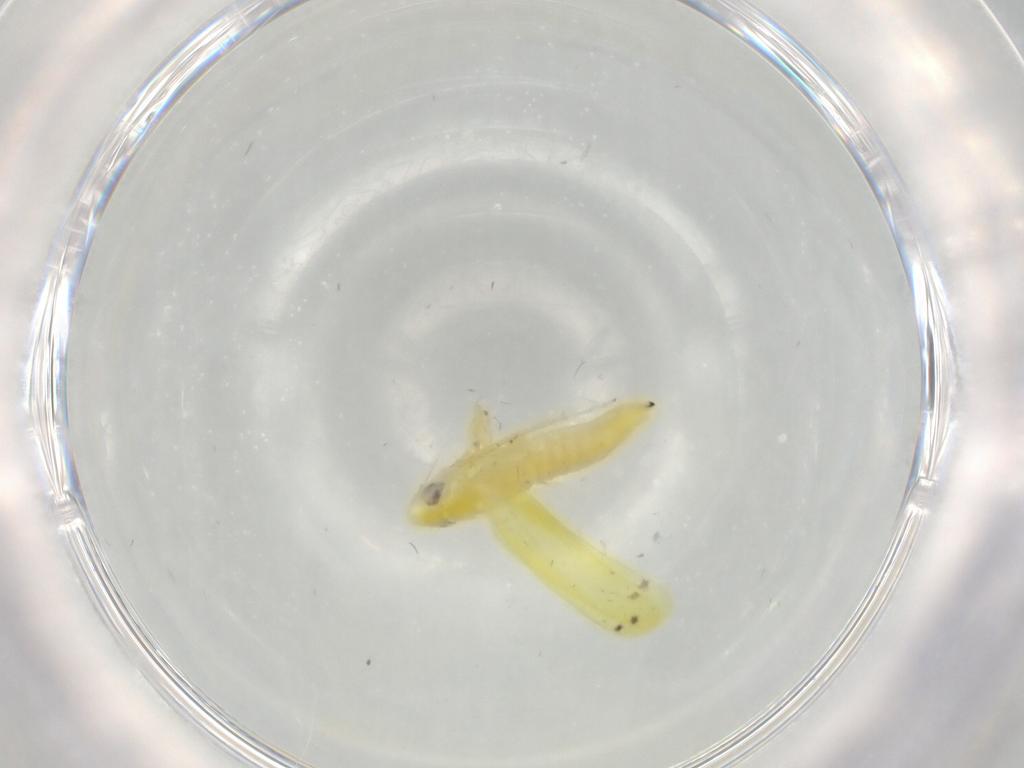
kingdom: Animalia
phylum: Arthropoda
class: Insecta
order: Hemiptera
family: Cicadellidae
